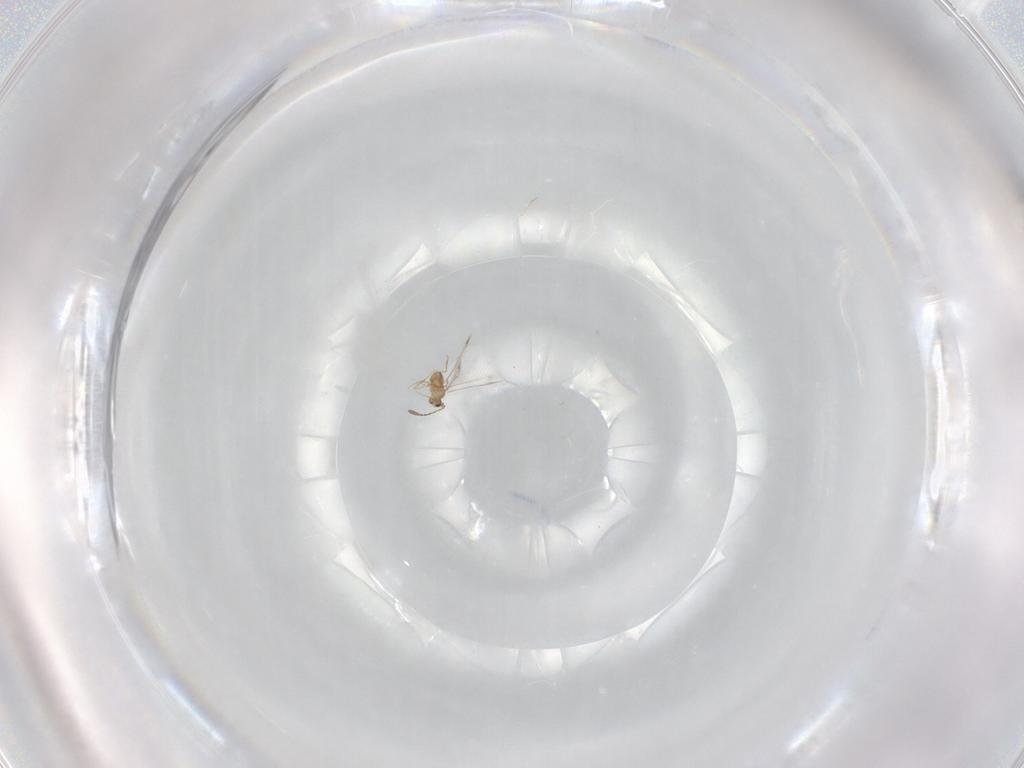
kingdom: Animalia
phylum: Arthropoda
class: Insecta
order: Hymenoptera
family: Mymaridae
